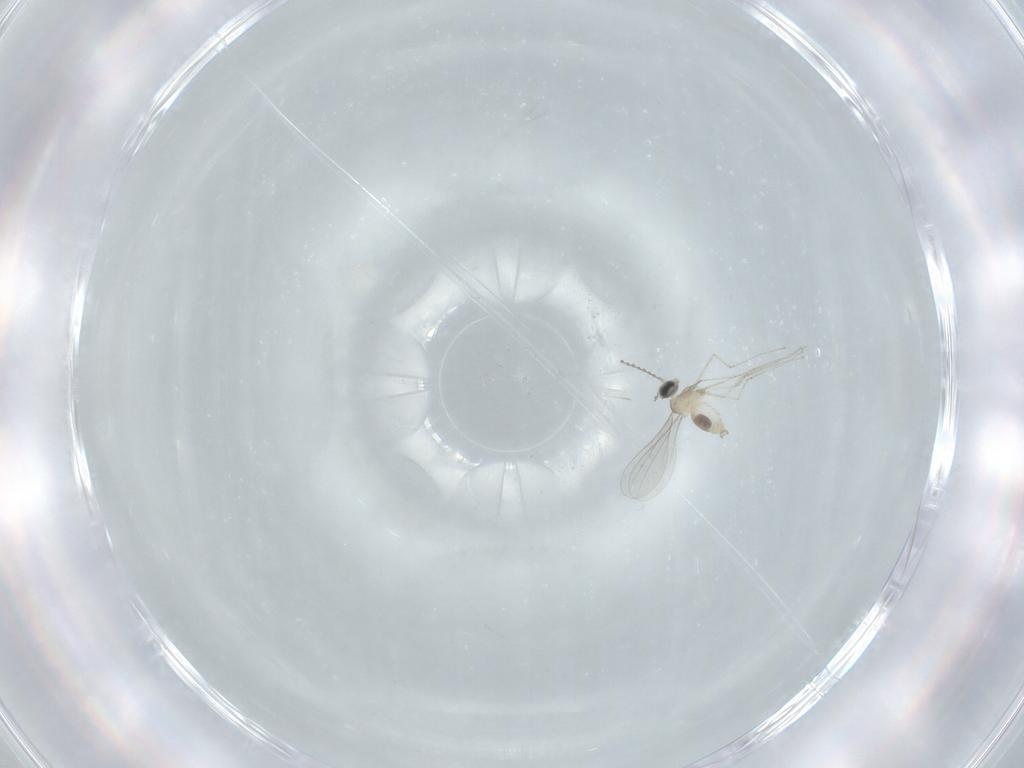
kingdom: Animalia
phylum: Arthropoda
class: Insecta
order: Diptera
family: Cecidomyiidae
